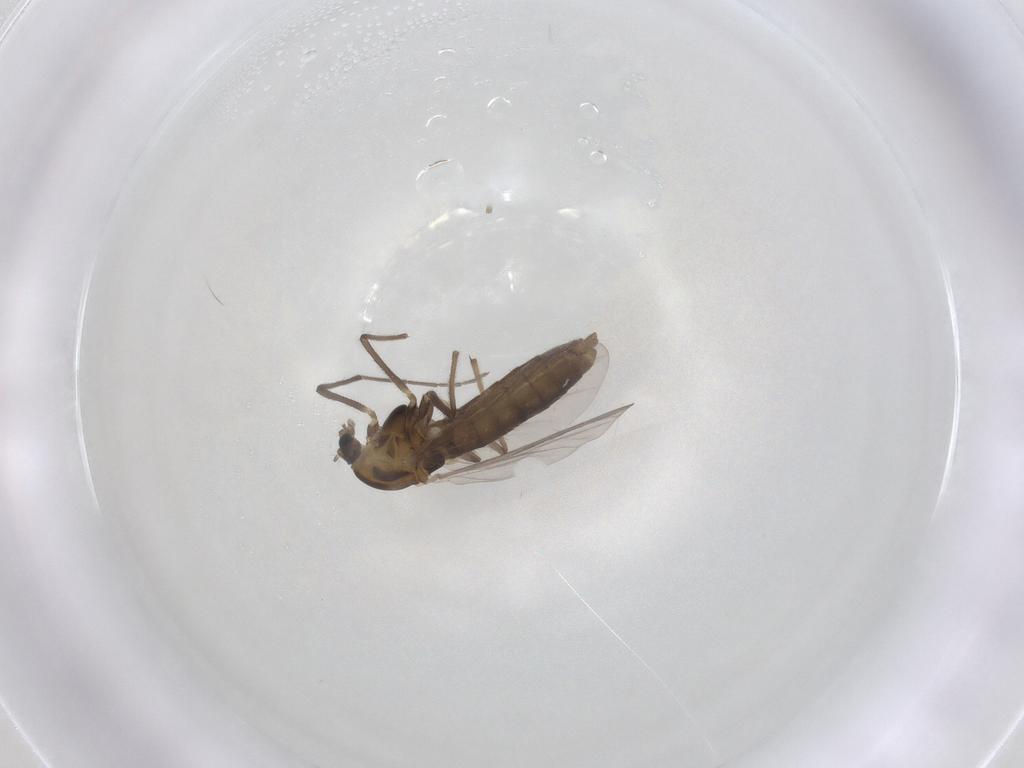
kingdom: Animalia
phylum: Arthropoda
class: Insecta
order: Diptera
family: Chironomidae
